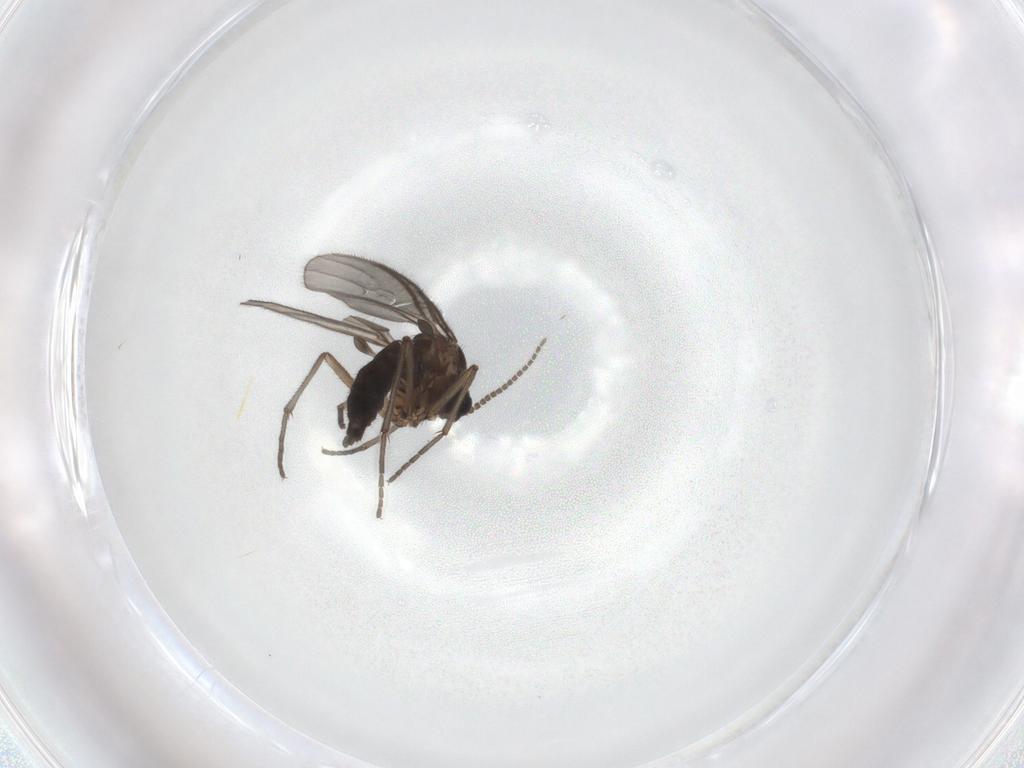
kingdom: Animalia
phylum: Arthropoda
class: Insecta
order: Diptera
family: Sciaridae
